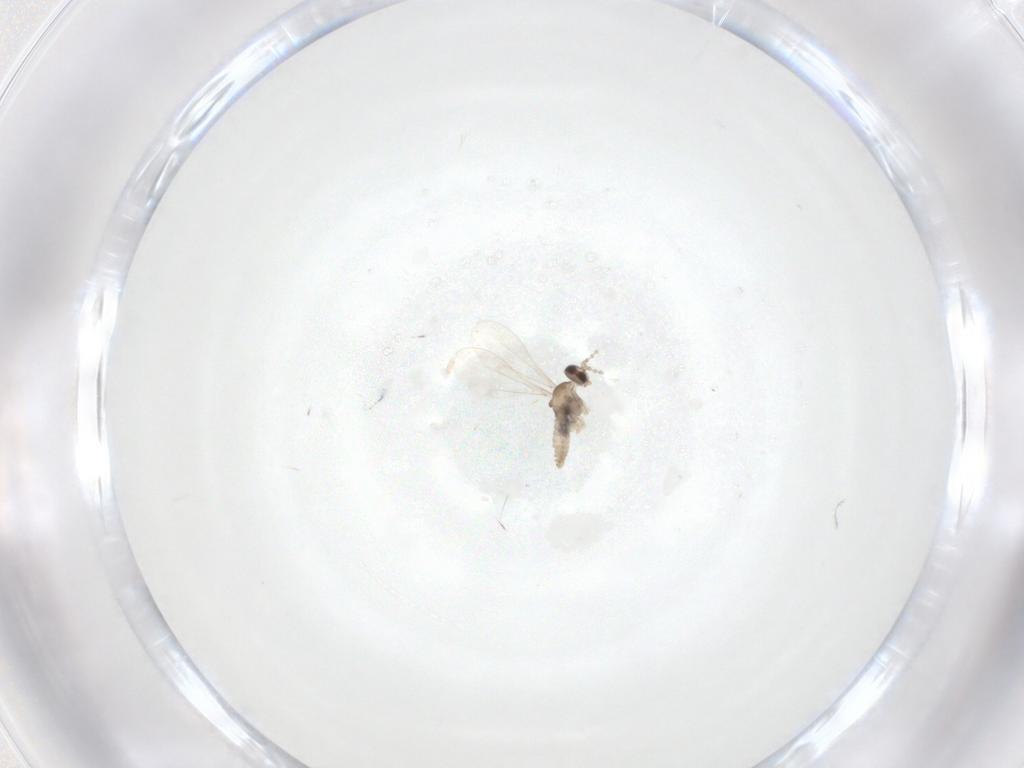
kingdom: Animalia
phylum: Arthropoda
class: Insecta
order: Diptera
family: Cecidomyiidae
